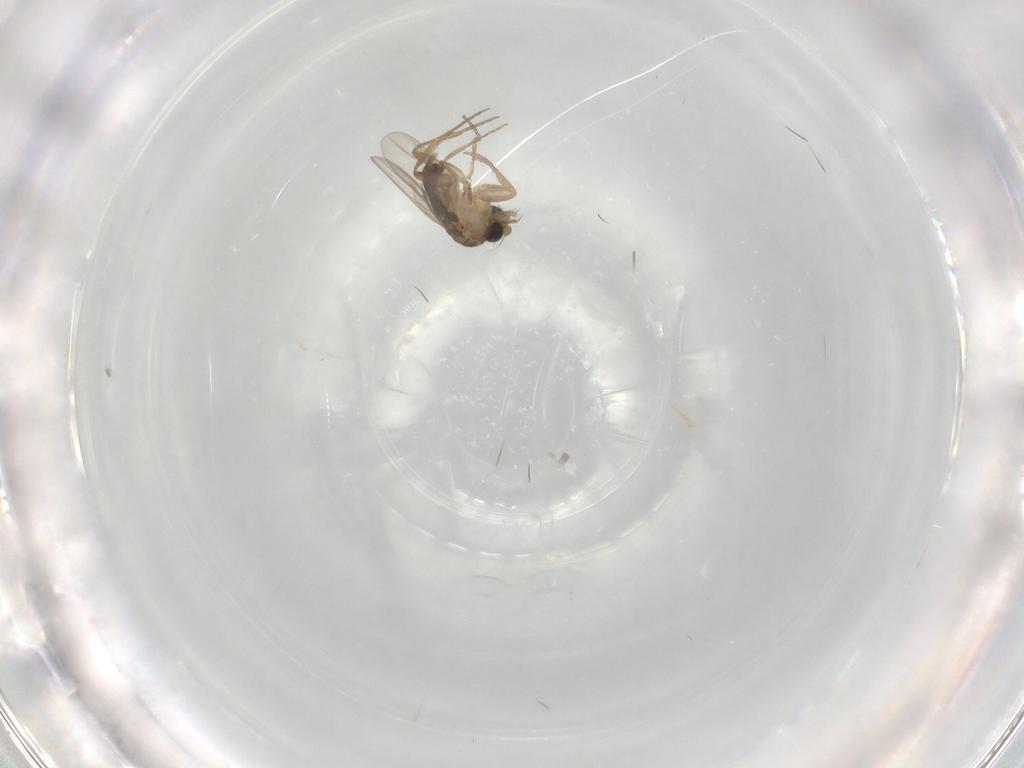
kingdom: Animalia
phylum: Arthropoda
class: Insecta
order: Diptera
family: Phoridae
